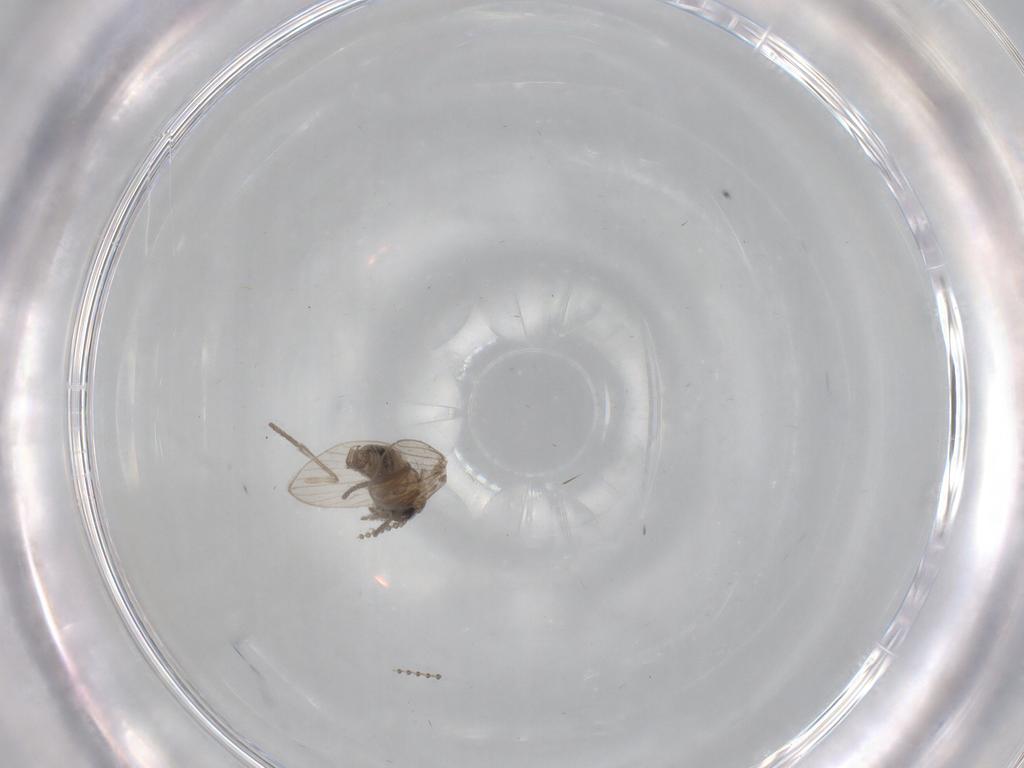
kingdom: Animalia
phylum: Arthropoda
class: Insecta
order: Diptera
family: Psychodidae
